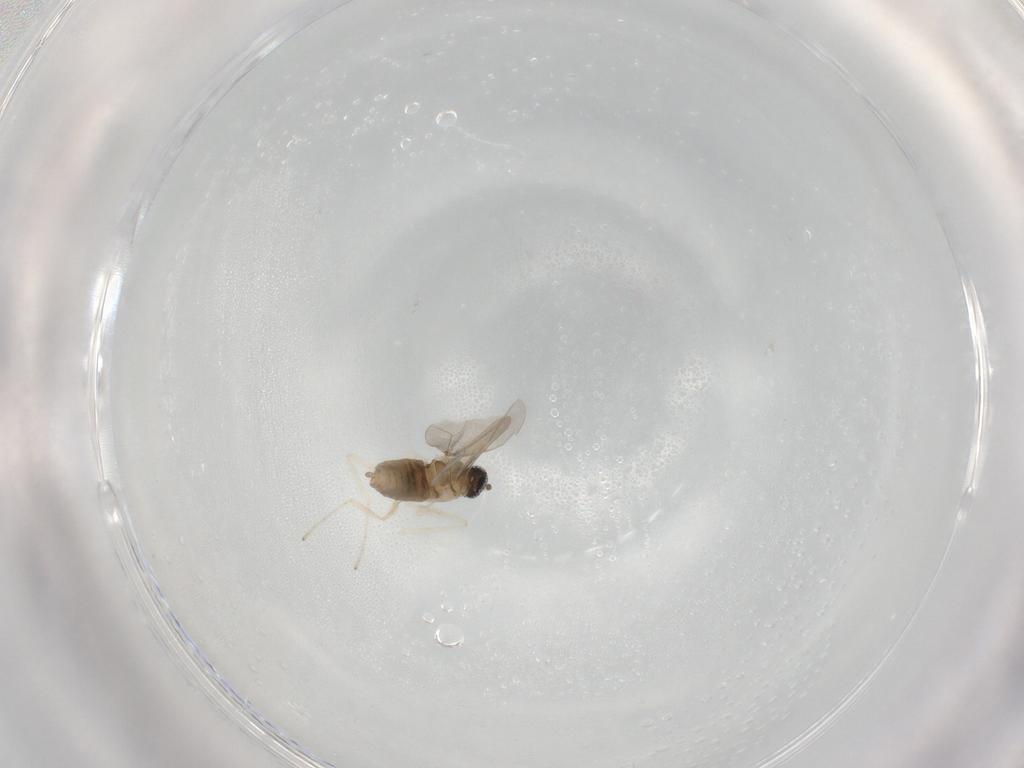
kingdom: Animalia
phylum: Arthropoda
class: Insecta
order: Diptera
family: Cecidomyiidae
